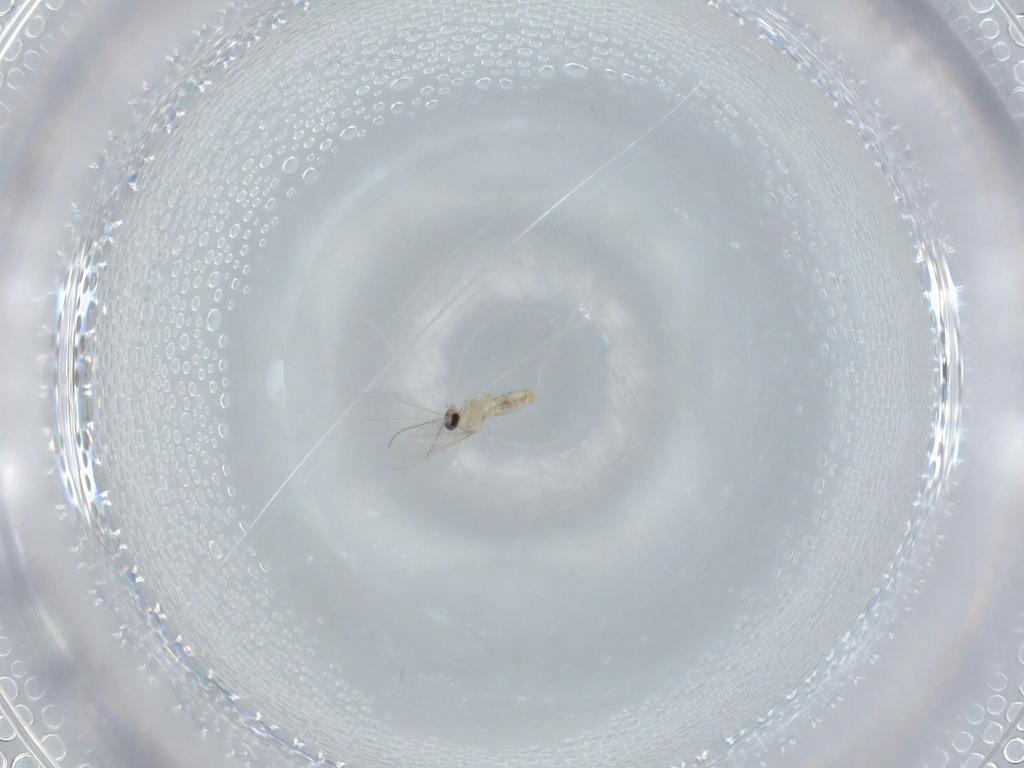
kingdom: Animalia
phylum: Arthropoda
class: Insecta
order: Diptera
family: Cecidomyiidae
